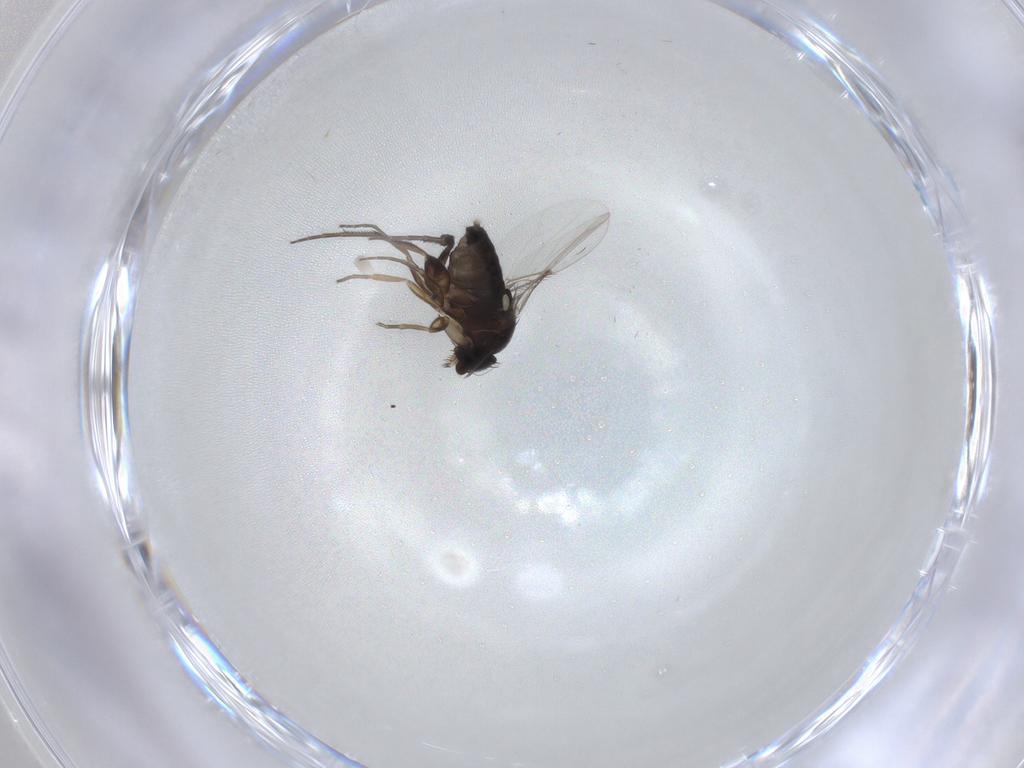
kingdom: Animalia
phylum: Arthropoda
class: Insecta
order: Diptera
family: Phoridae
